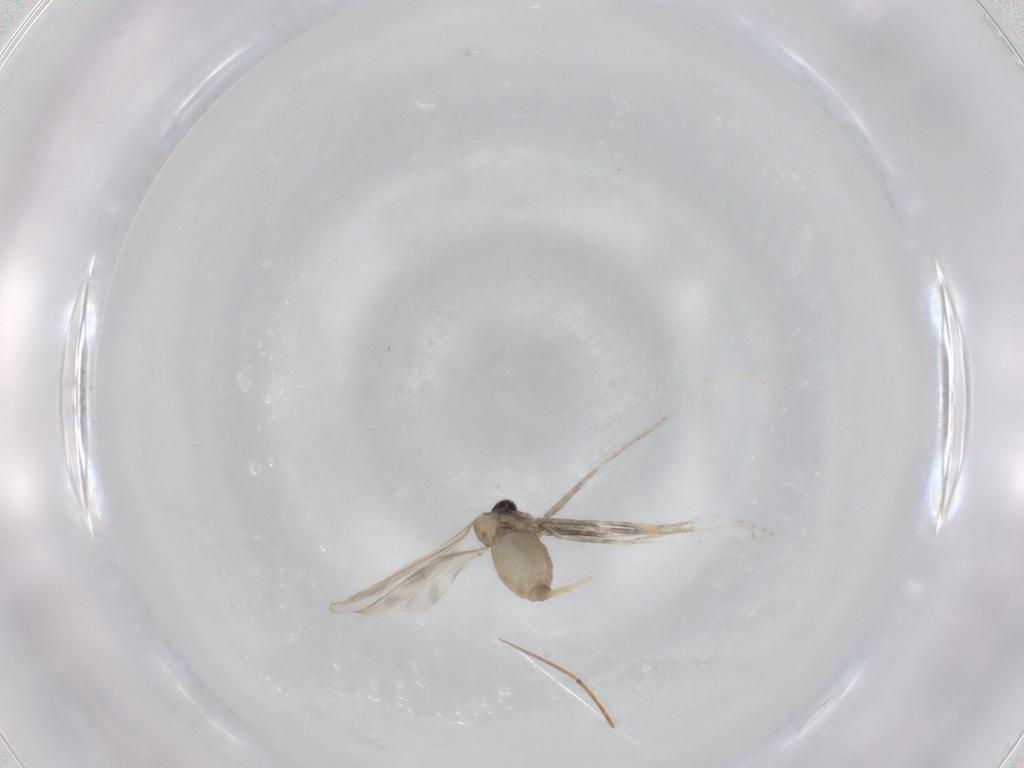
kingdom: Animalia
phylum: Arthropoda
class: Insecta
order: Diptera
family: Cecidomyiidae
